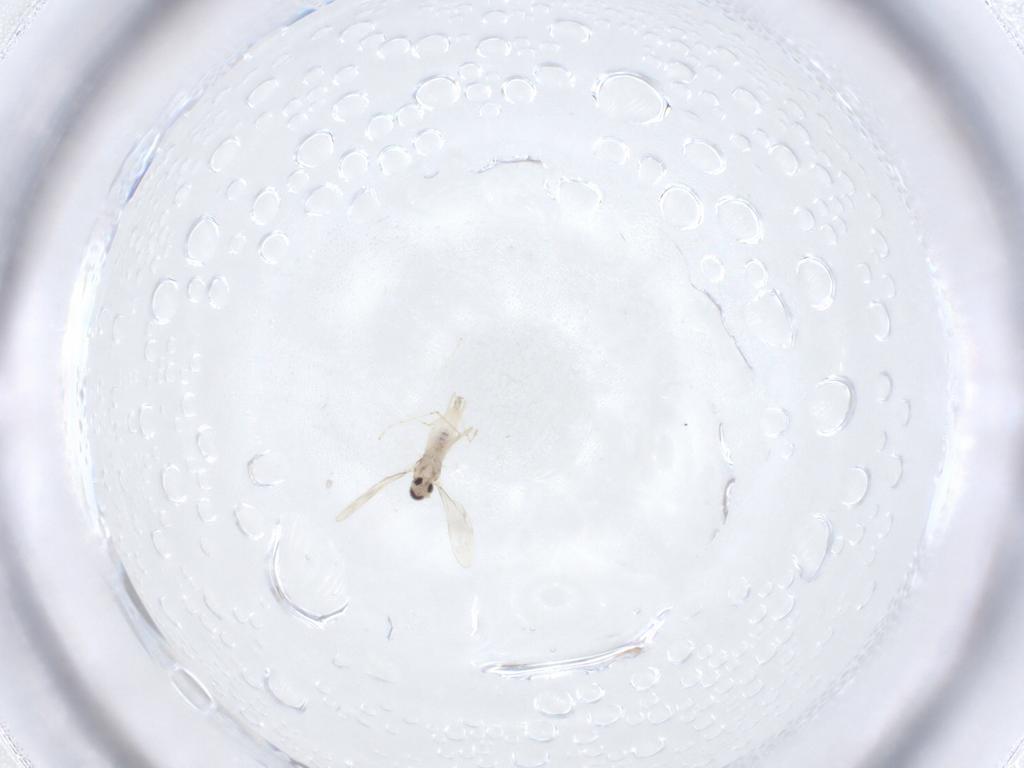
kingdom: Animalia
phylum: Arthropoda
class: Insecta
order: Diptera
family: Cecidomyiidae
